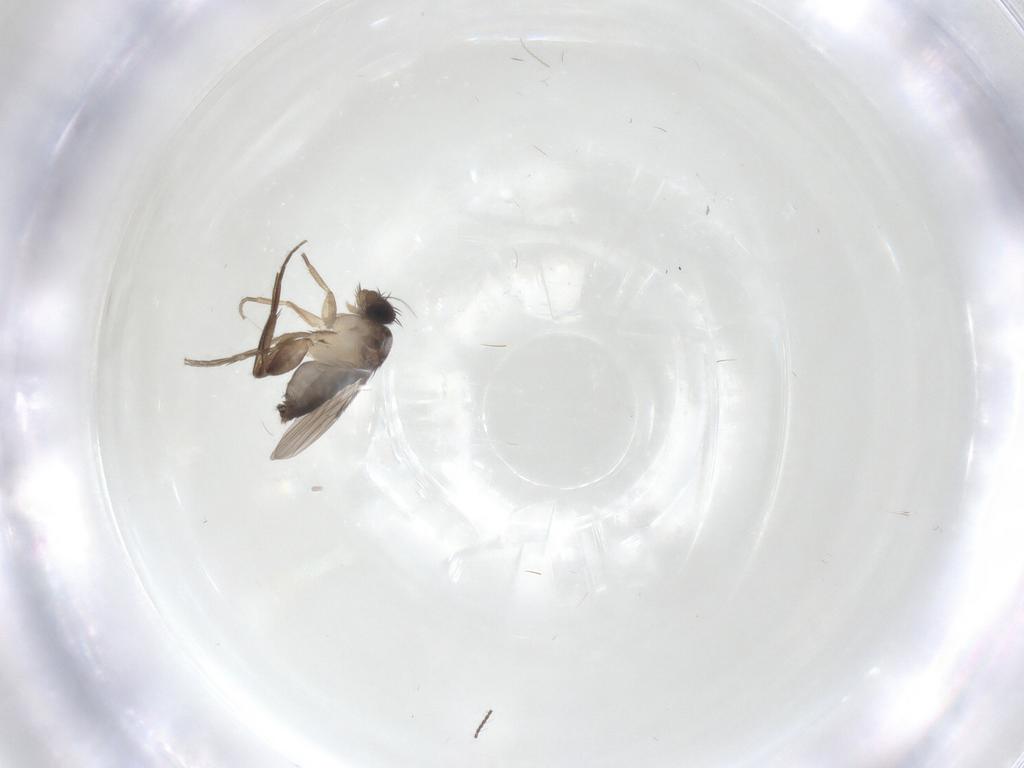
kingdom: Animalia
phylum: Arthropoda
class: Insecta
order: Diptera
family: Phoridae
